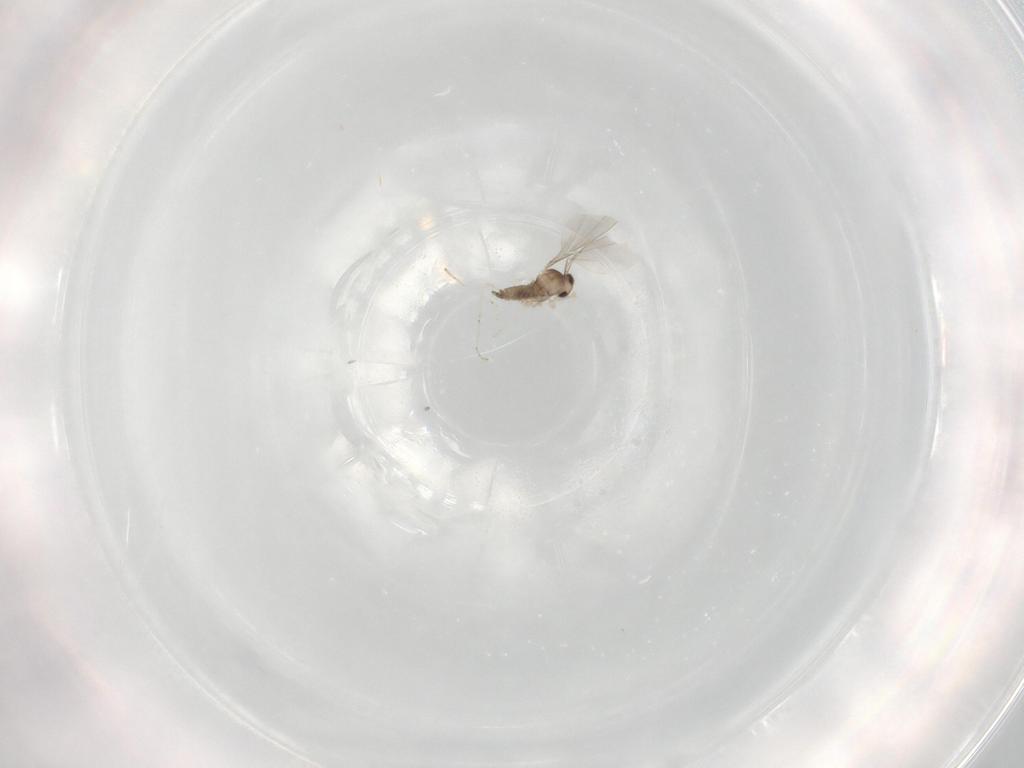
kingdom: Animalia
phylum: Arthropoda
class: Insecta
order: Diptera
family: Cecidomyiidae
